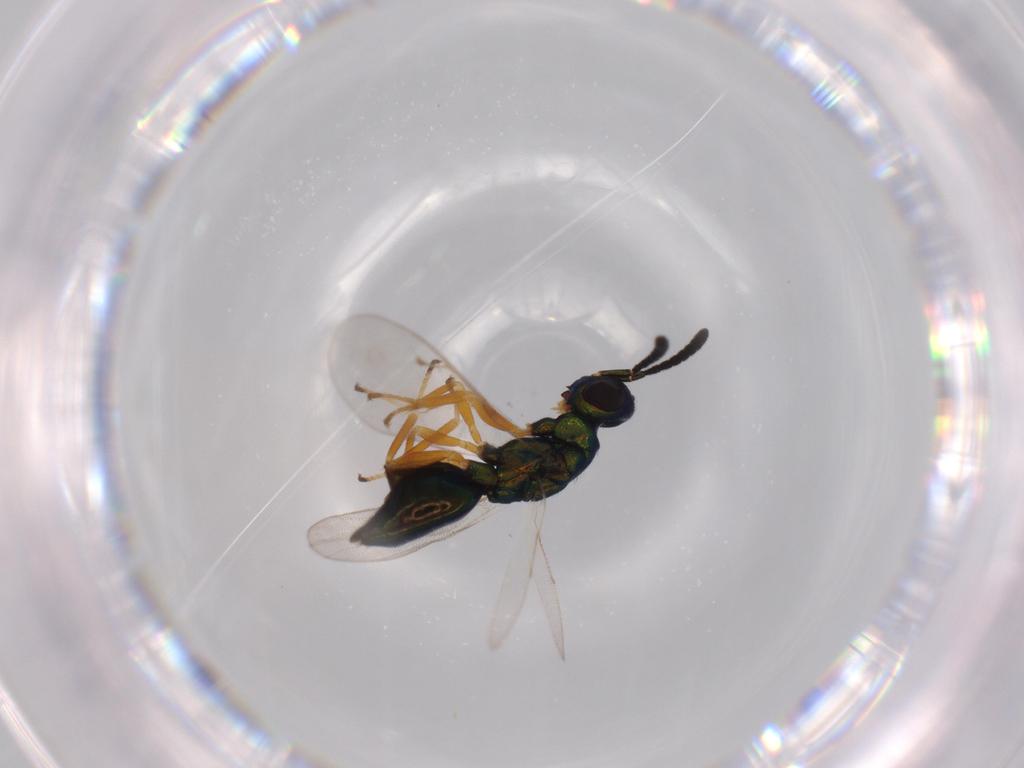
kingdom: Animalia
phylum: Arthropoda
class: Insecta
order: Hymenoptera
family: Pteromalidae
